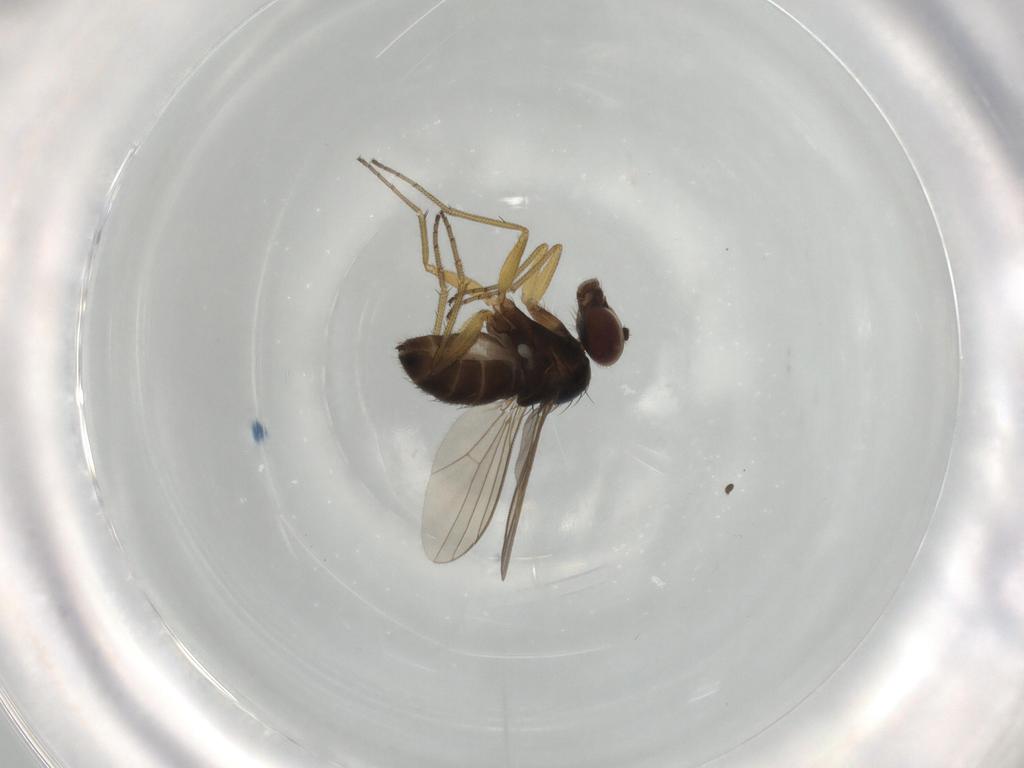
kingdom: Animalia
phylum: Arthropoda
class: Insecta
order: Diptera
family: Dolichopodidae
